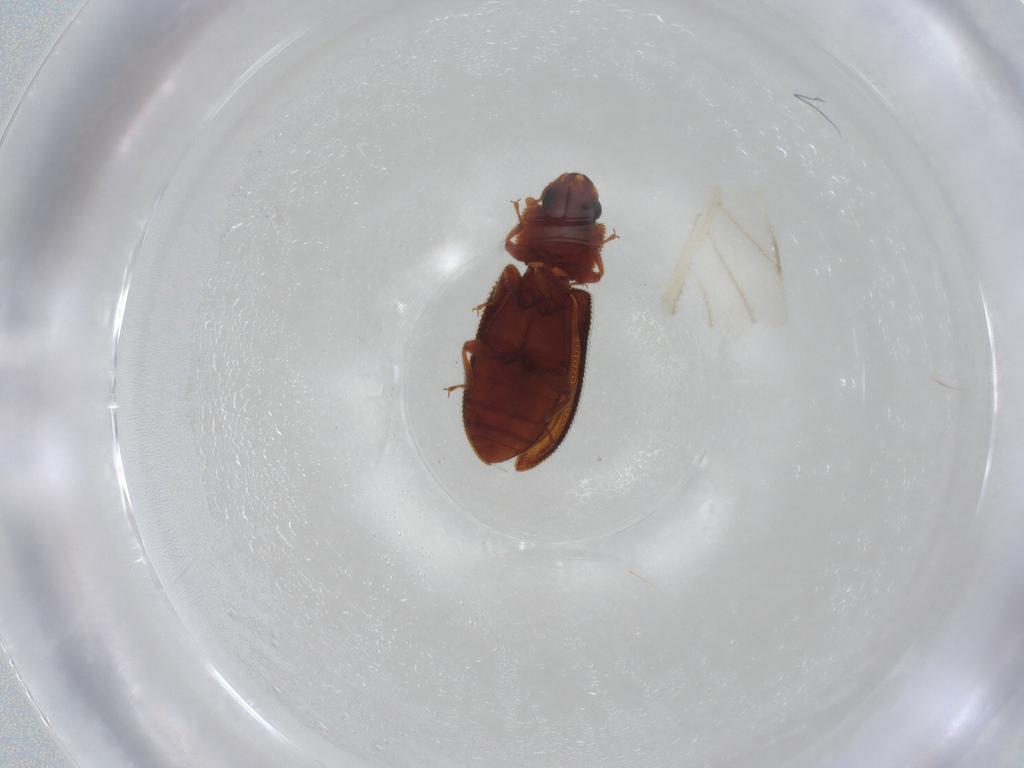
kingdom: Animalia
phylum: Arthropoda
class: Insecta
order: Coleoptera
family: Zopheridae
